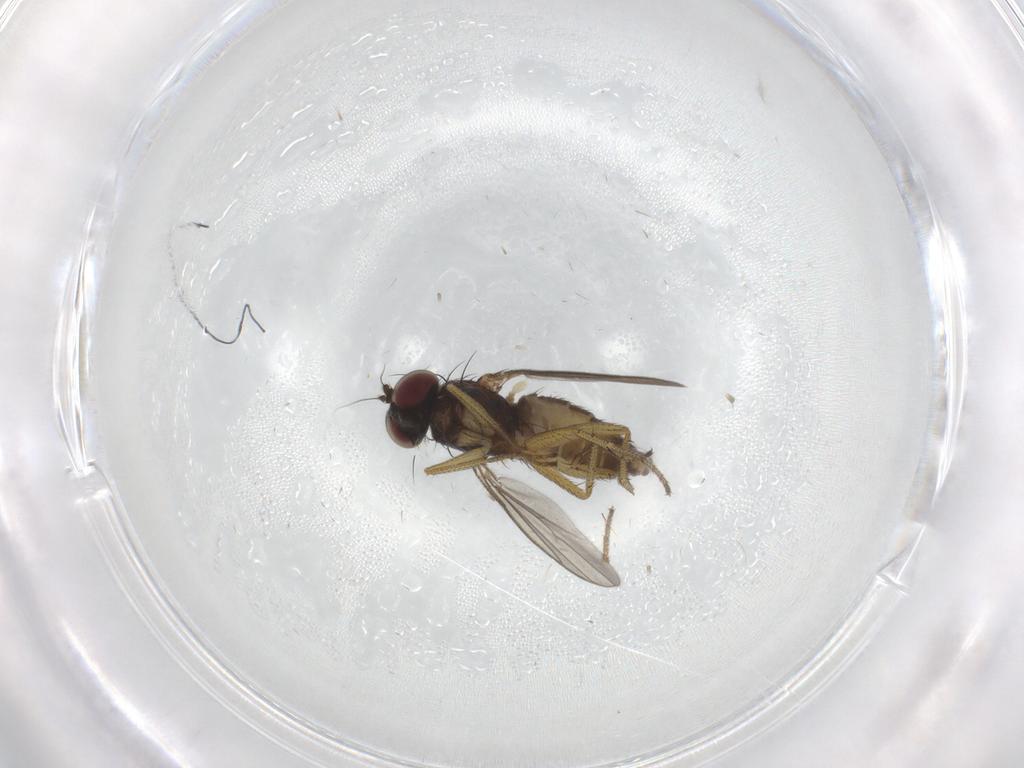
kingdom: Animalia
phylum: Arthropoda
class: Insecta
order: Diptera
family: Dolichopodidae
